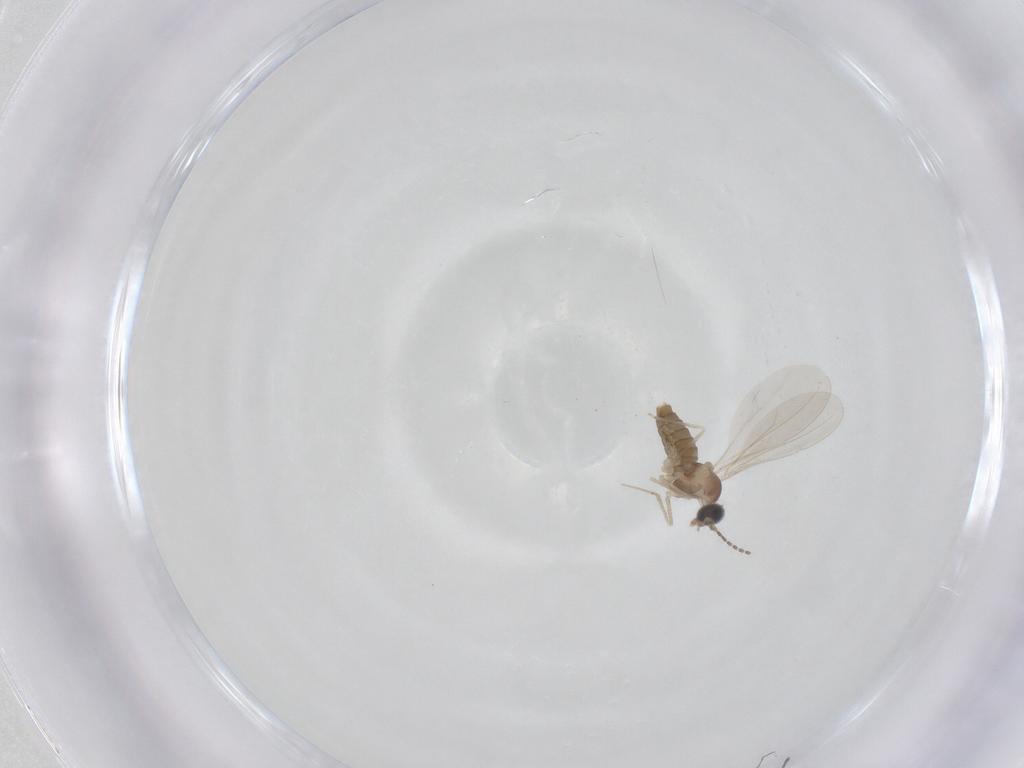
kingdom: Animalia
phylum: Arthropoda
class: Insecta
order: Diptera
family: Cecidomyiidae
